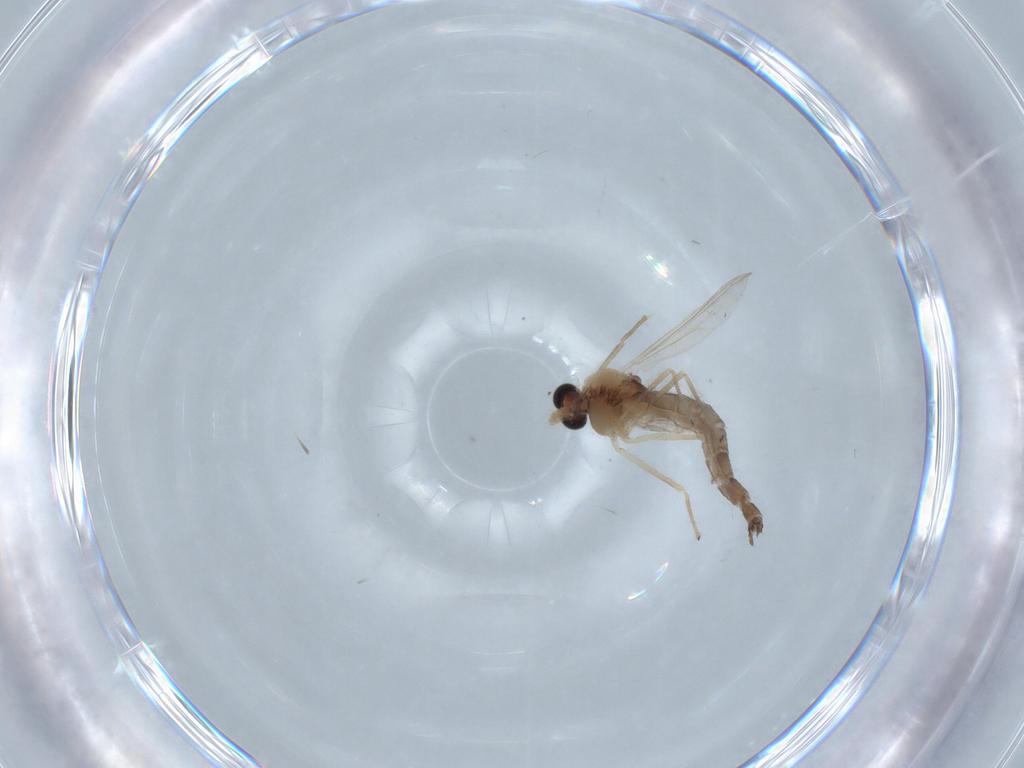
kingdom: Animalia
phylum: Arthropoda
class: Insecta
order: Diptera
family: Chironomidae
